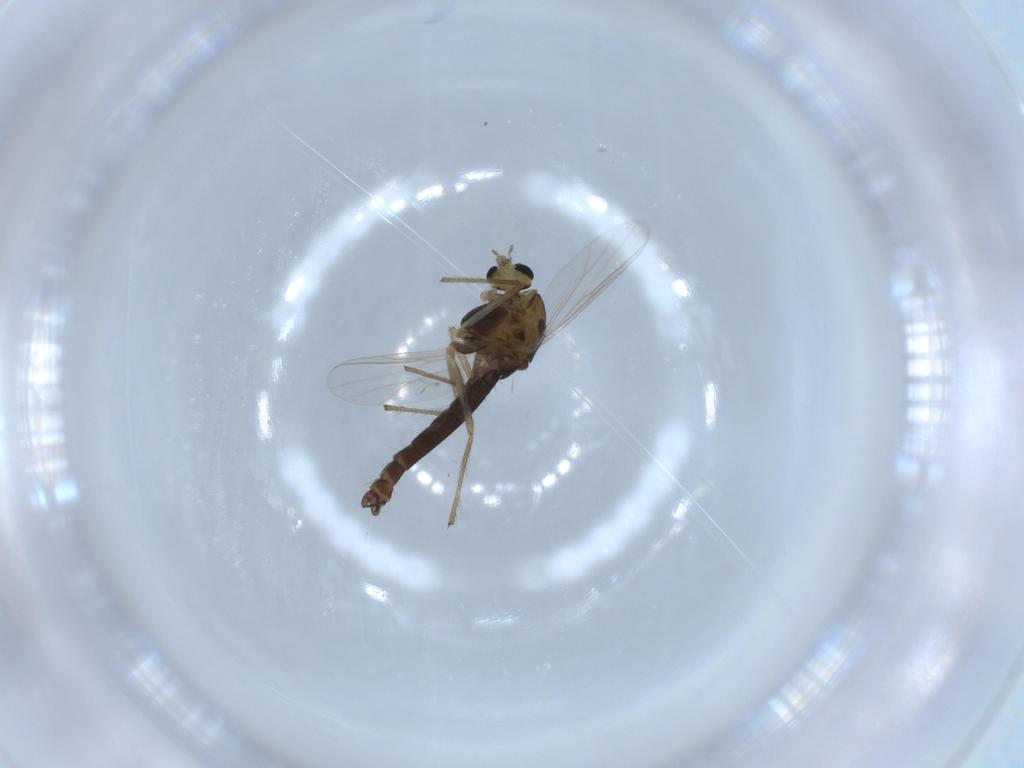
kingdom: Animalia
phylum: Arthropoda
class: Insecta
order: Diptera
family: Chironomidae
